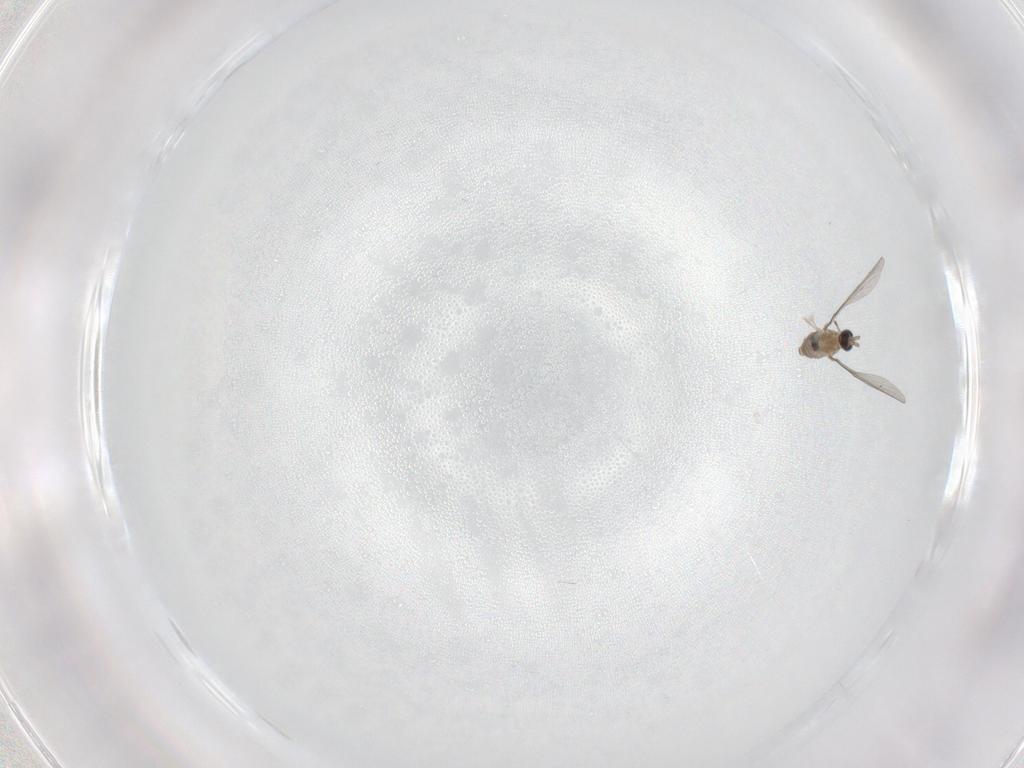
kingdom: Animalia
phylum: Arthropoda
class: Insecta
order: Diptera
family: Cecidomyiidae
